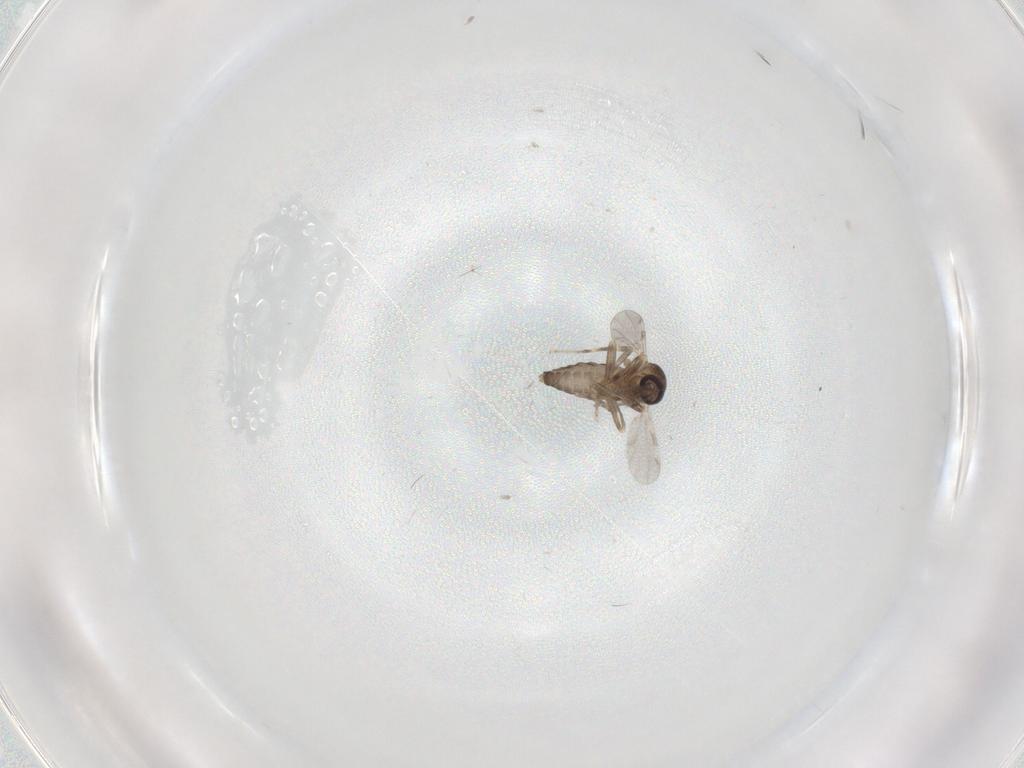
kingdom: Animalia
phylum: Arthropoda
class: Insecta
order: Diptera
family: Ceratopogonidae
